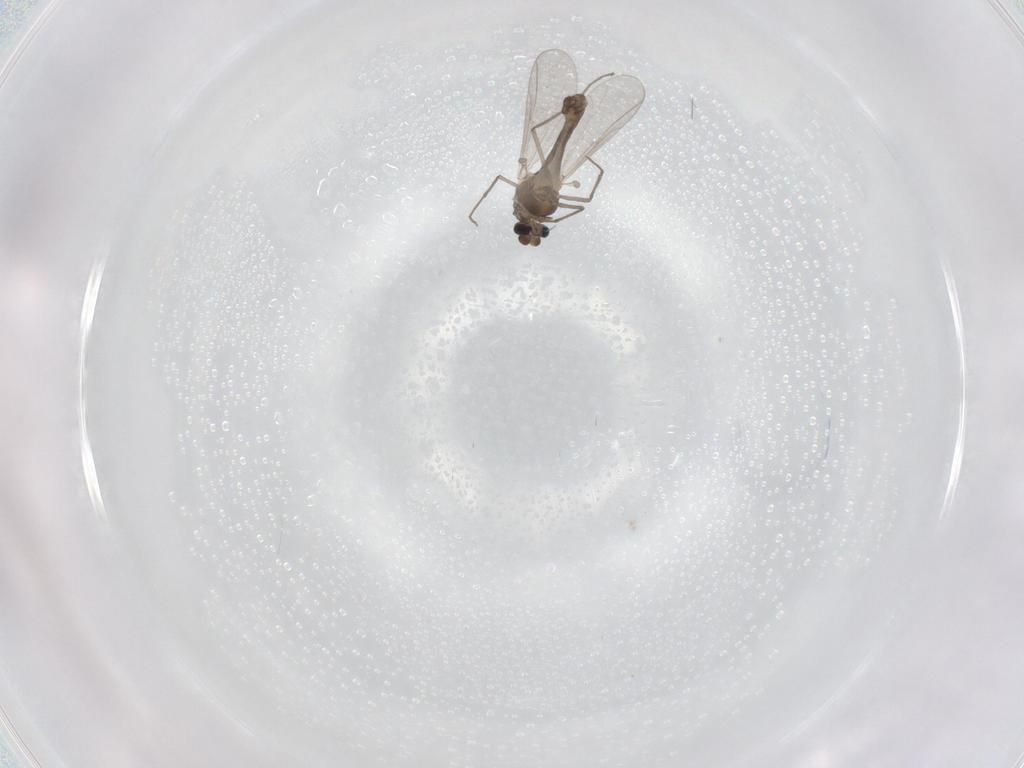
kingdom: Animalia
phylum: Arthropoda
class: Insecta
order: Diptera
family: Chironomidae
